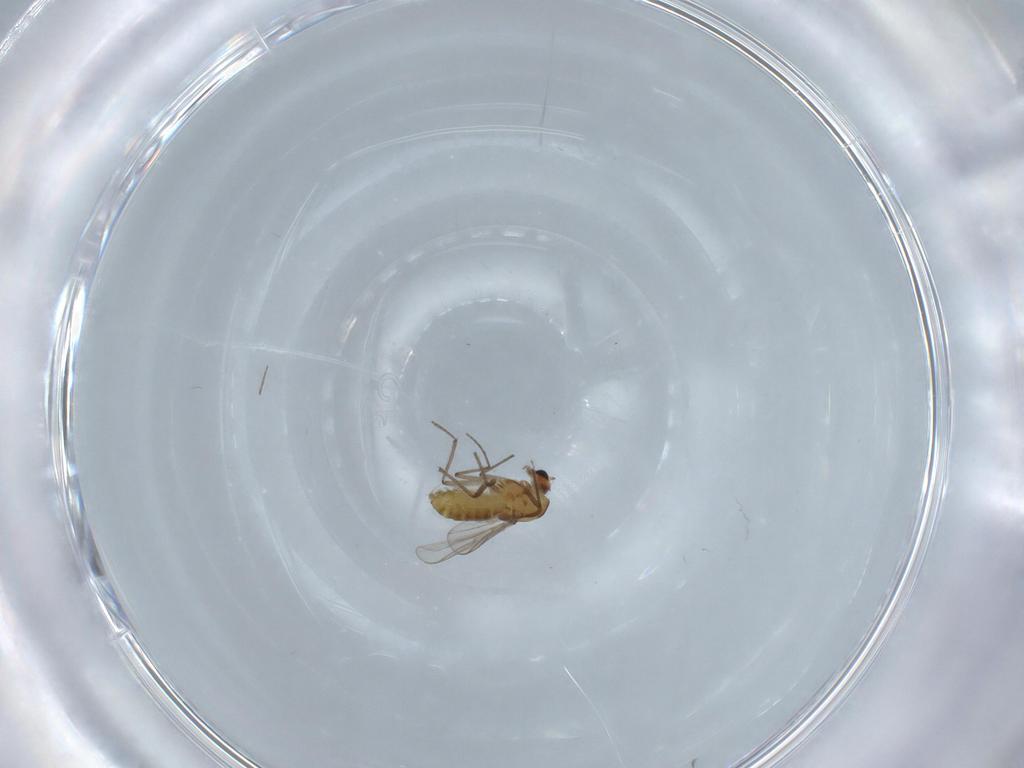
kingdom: Animalia
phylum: Arthropoda
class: Insecta
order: Diptera
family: Chironomidae
